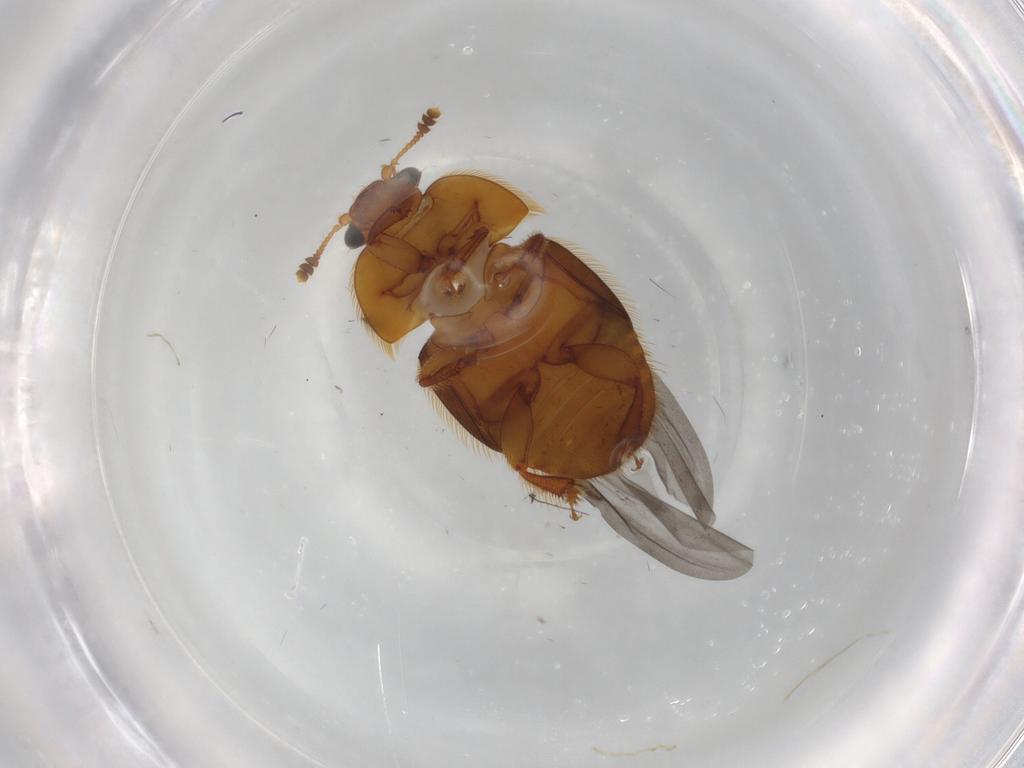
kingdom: Animalia
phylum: Arthropoda
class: Insecta
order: Coleoptera
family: Nitidulidae
